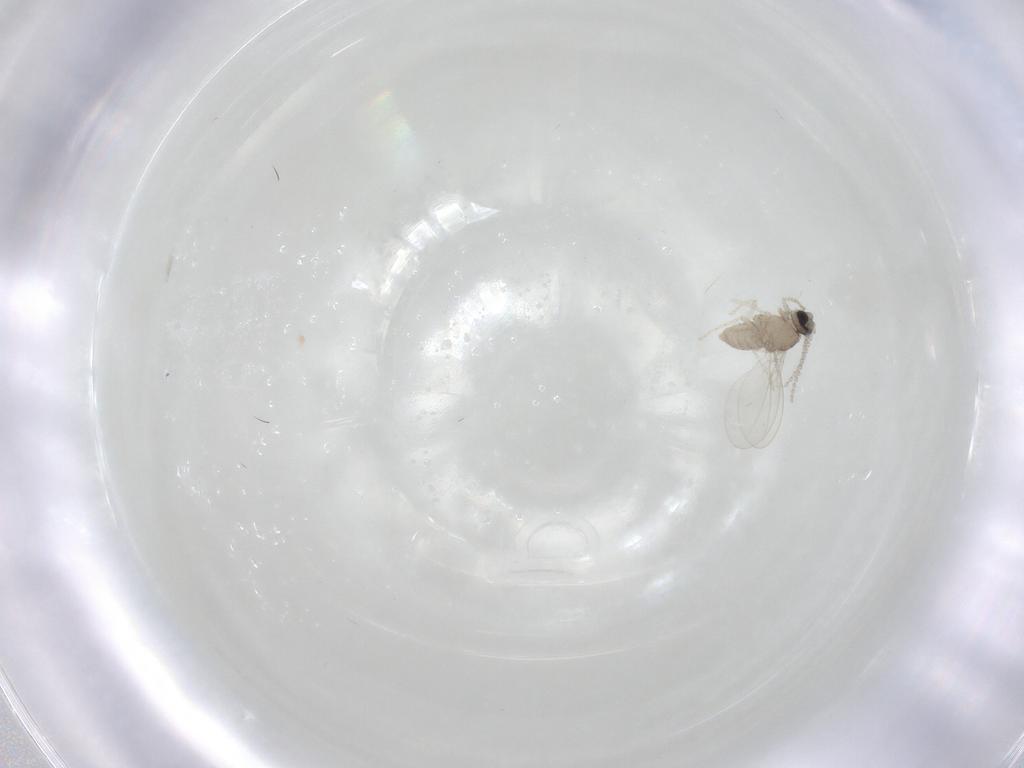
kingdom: Animalia
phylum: Arthropoda
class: Insecta
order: Diptera
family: Cecidomyiidae
